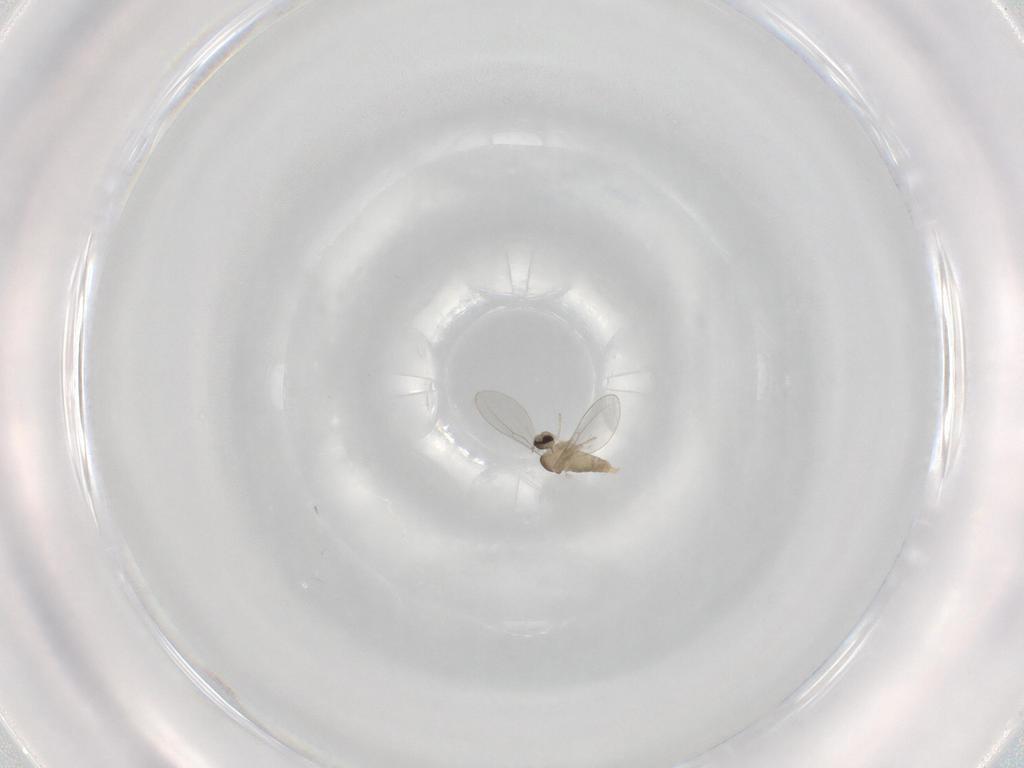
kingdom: Animalia
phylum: Arthropoda
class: Insecta
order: Diptera
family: Cecidomyiidae
